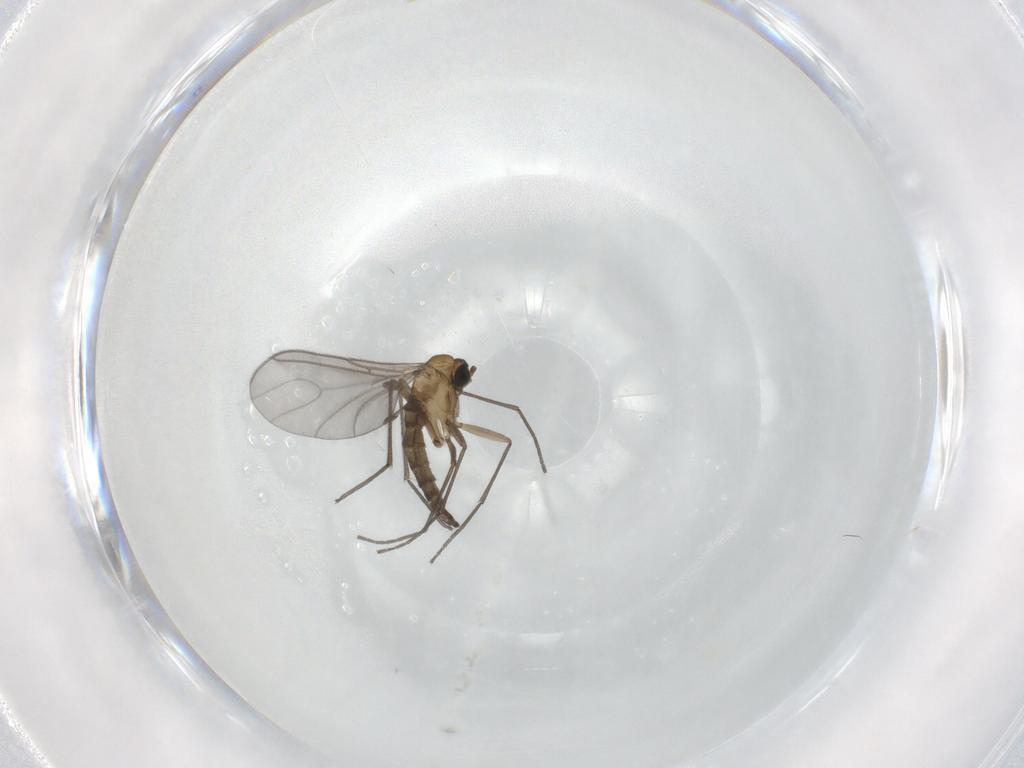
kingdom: Animalia
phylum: Arthropoda
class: Insecta
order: Diptera
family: Sciaridae
